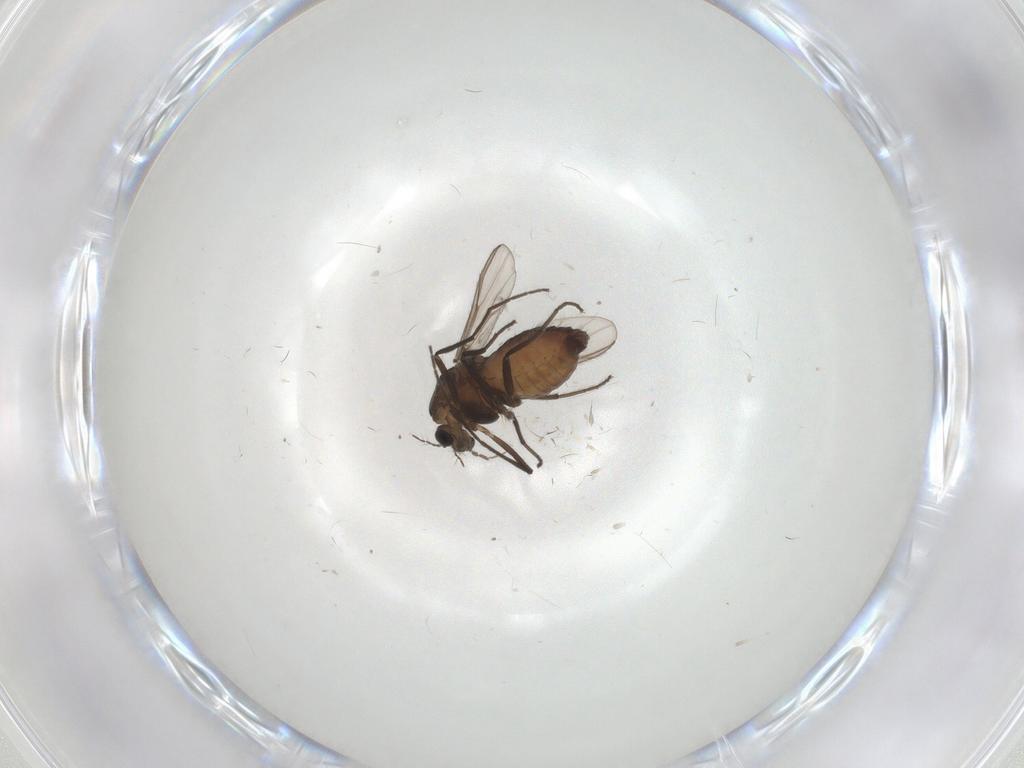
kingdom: Animalia
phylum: Arthropoda
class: Insecta
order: Diptera
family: Chironomidae
